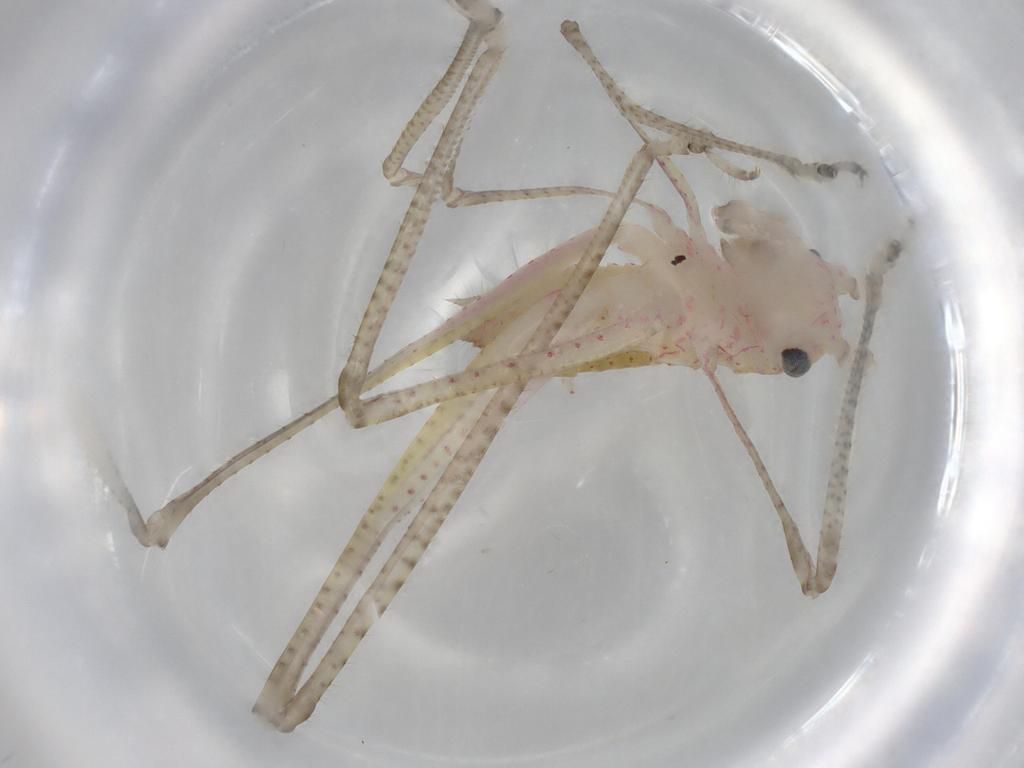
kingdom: Animalia
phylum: Arthropoda
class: Insecta
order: Orthoptera
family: Tettigoniidae
